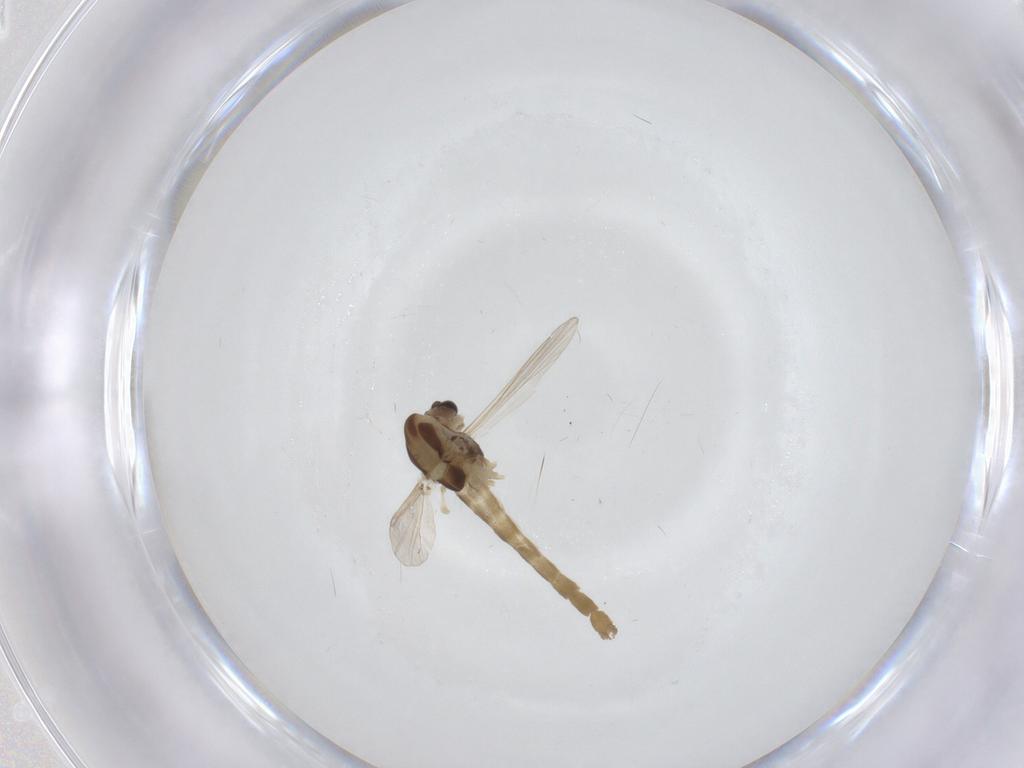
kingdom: Animalia
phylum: Arthropoda
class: Insecta
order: Diptera
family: Chironomidae
